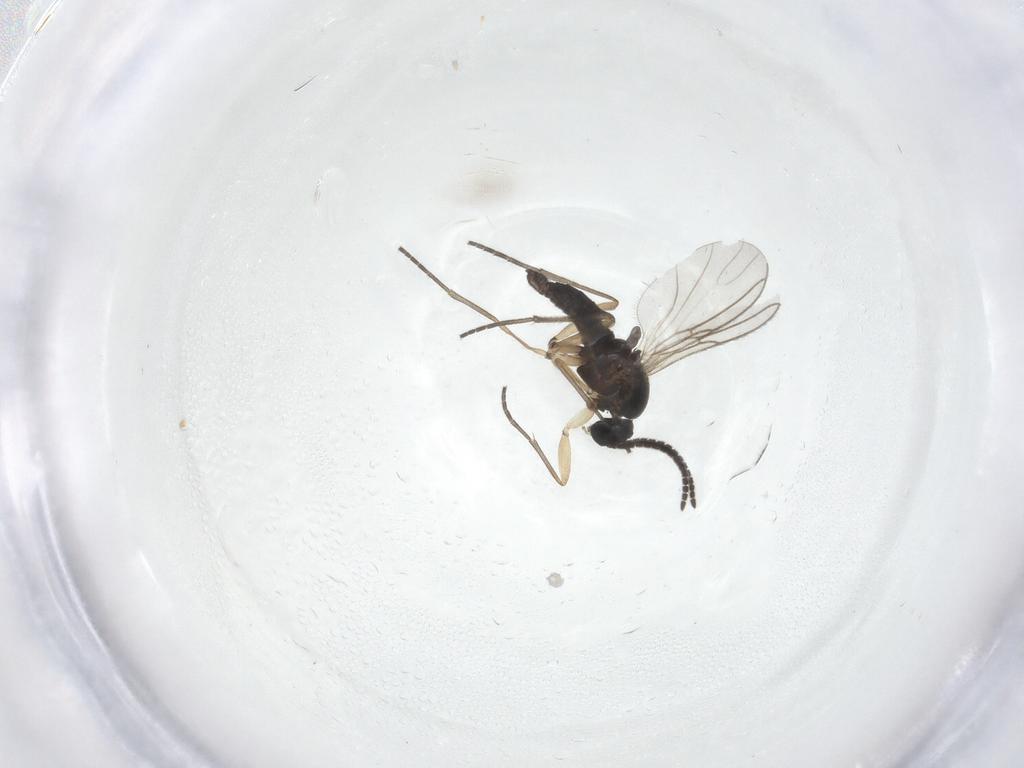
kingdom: Animalia
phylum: Arthropoda
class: Insecta
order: Diptera
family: Sciaridae
